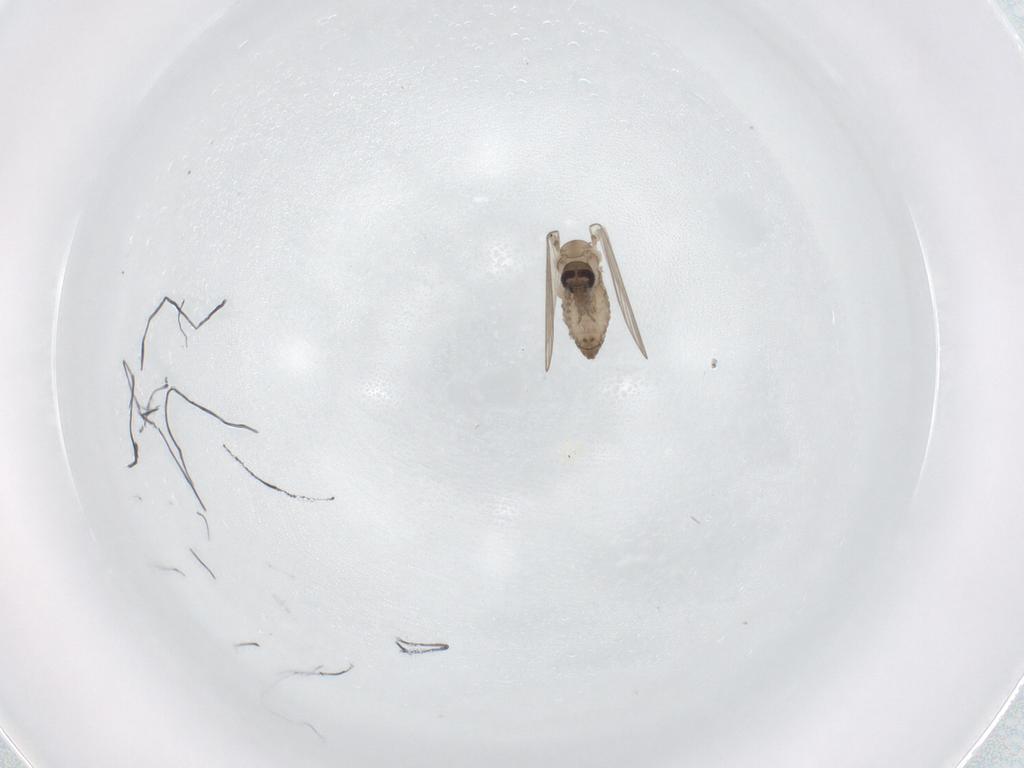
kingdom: Animalia
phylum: Arthropoda
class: Insecta
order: Diptera
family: Psychodidae
